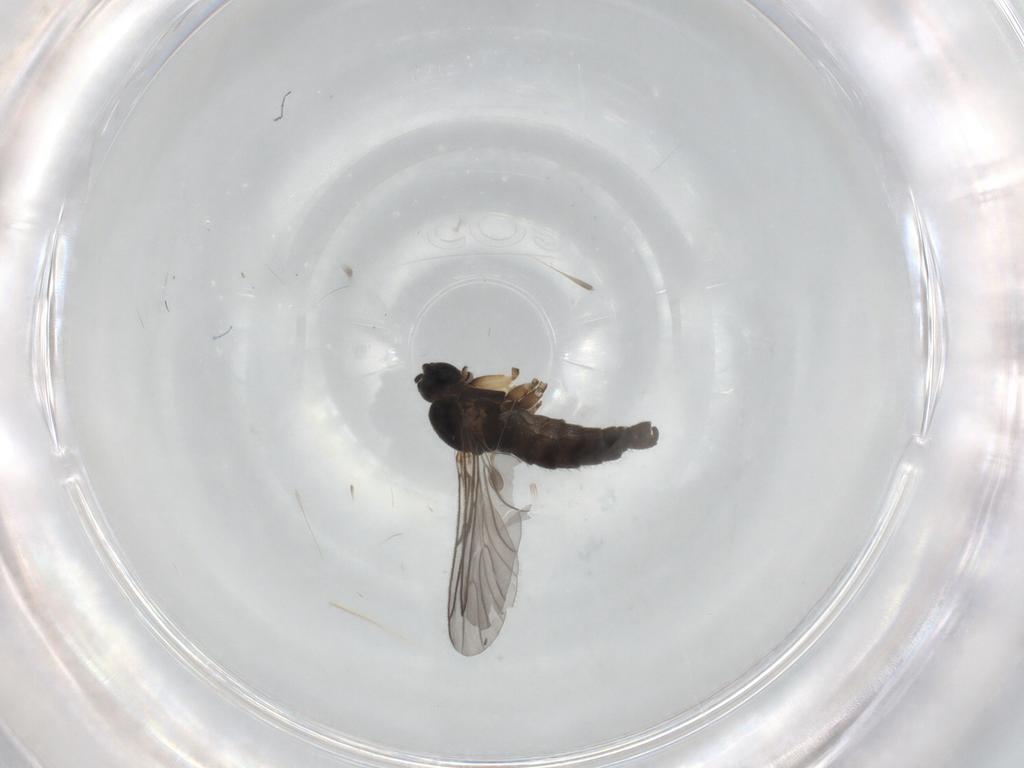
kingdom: Animalia
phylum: Arthropoda
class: Insecta
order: Diptera
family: Sciaridae
